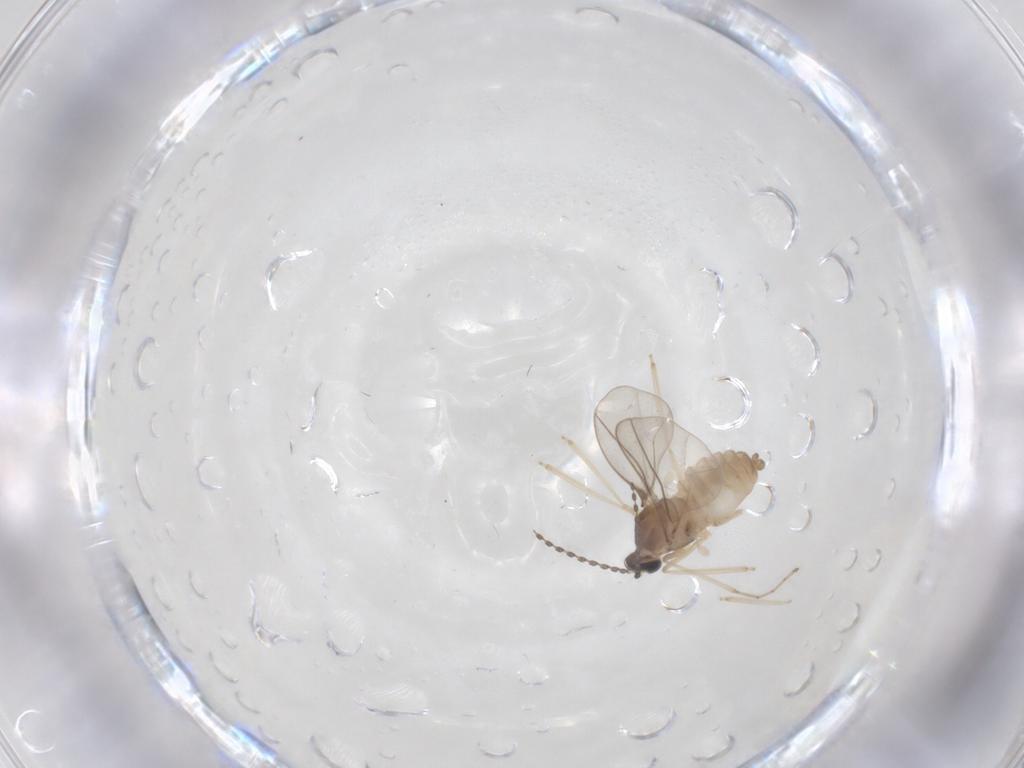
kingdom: Animalia
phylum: Arthropoda
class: Insecta
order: Diptera
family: Cecidomyiidae
